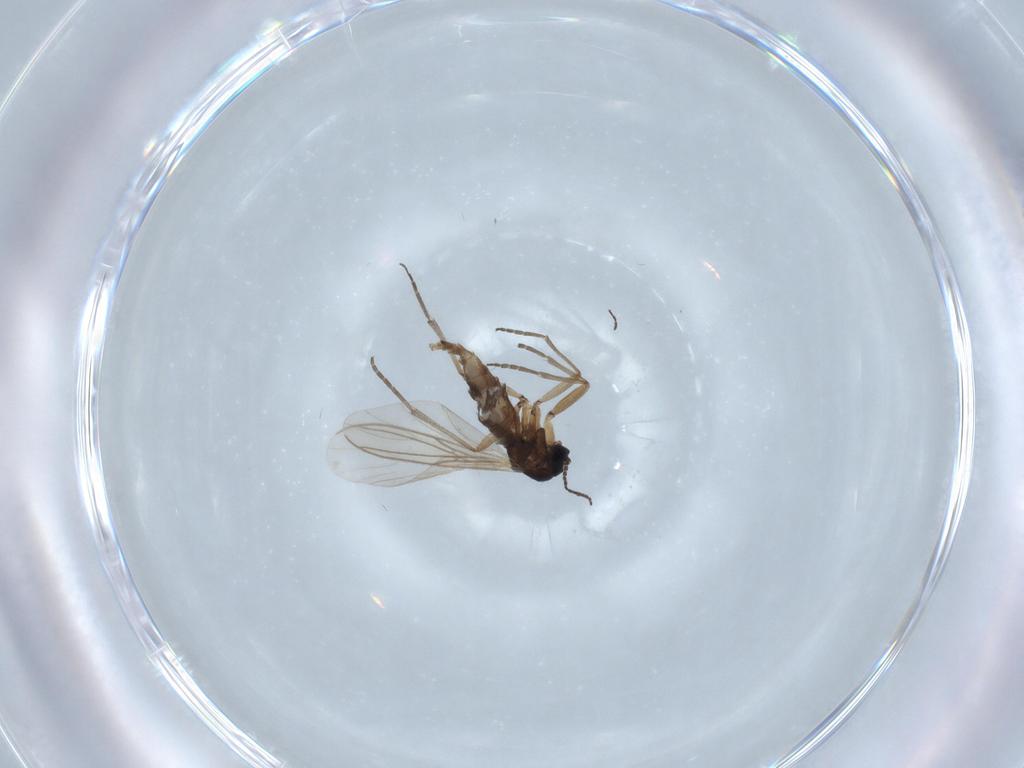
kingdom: Animalia
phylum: Arthropoda
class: Insecta
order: Diptera
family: Sciaridae
